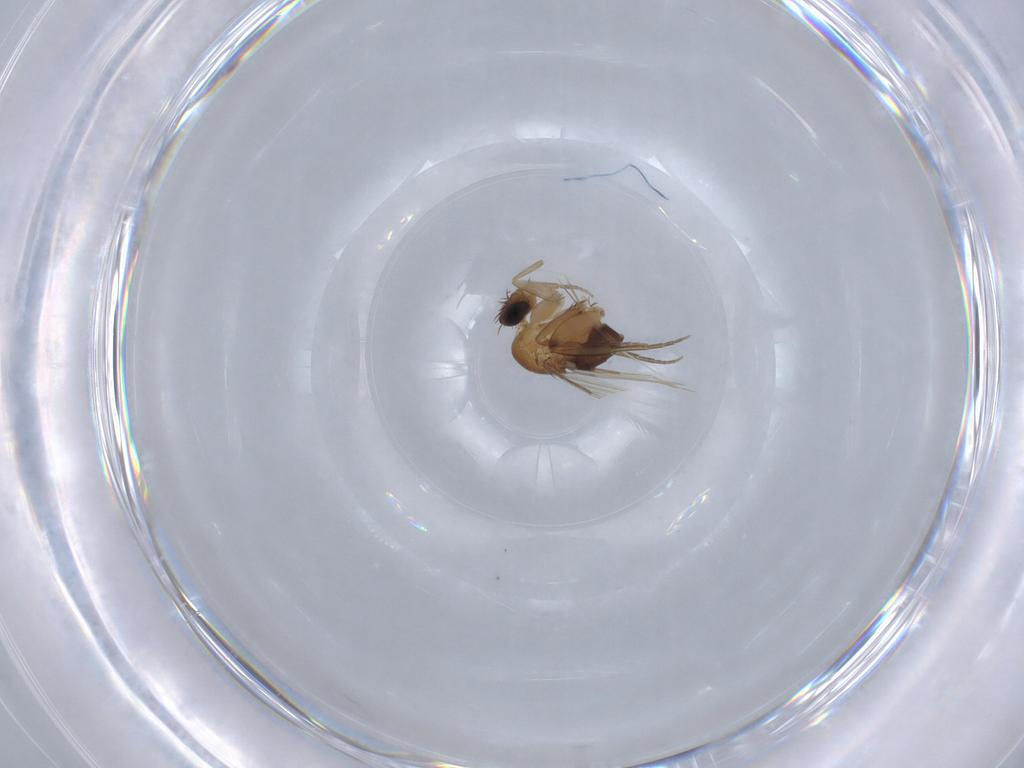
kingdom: Animalia
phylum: Arthropoda
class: Insecta
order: Diptera
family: Phoridae
